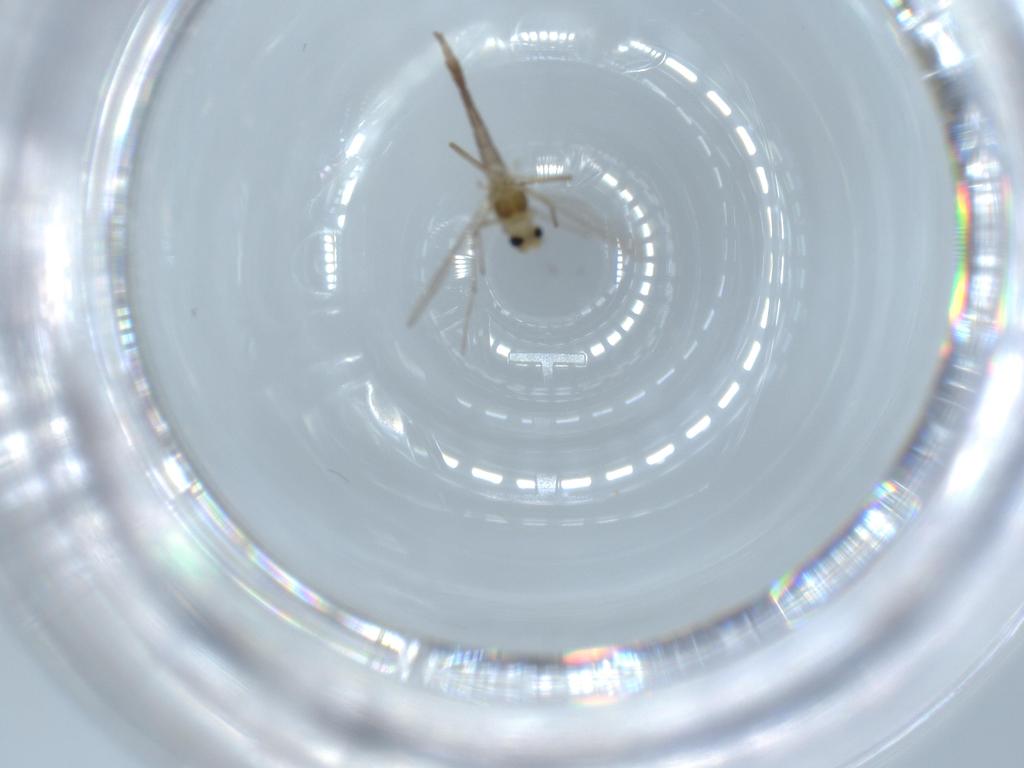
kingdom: Animalia
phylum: Arthropoda
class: Insecta
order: Diptera
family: Chironomidae
